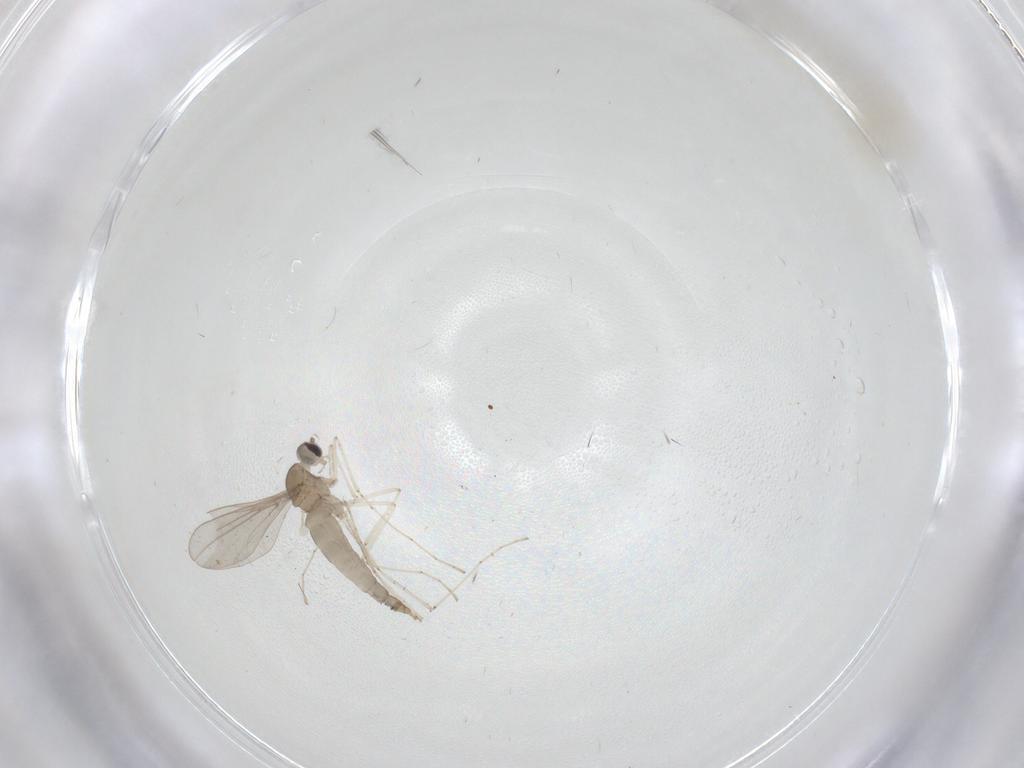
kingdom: Animalia
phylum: Arthropoda
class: Insecta
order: Diptera
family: Cecidomyiidae
